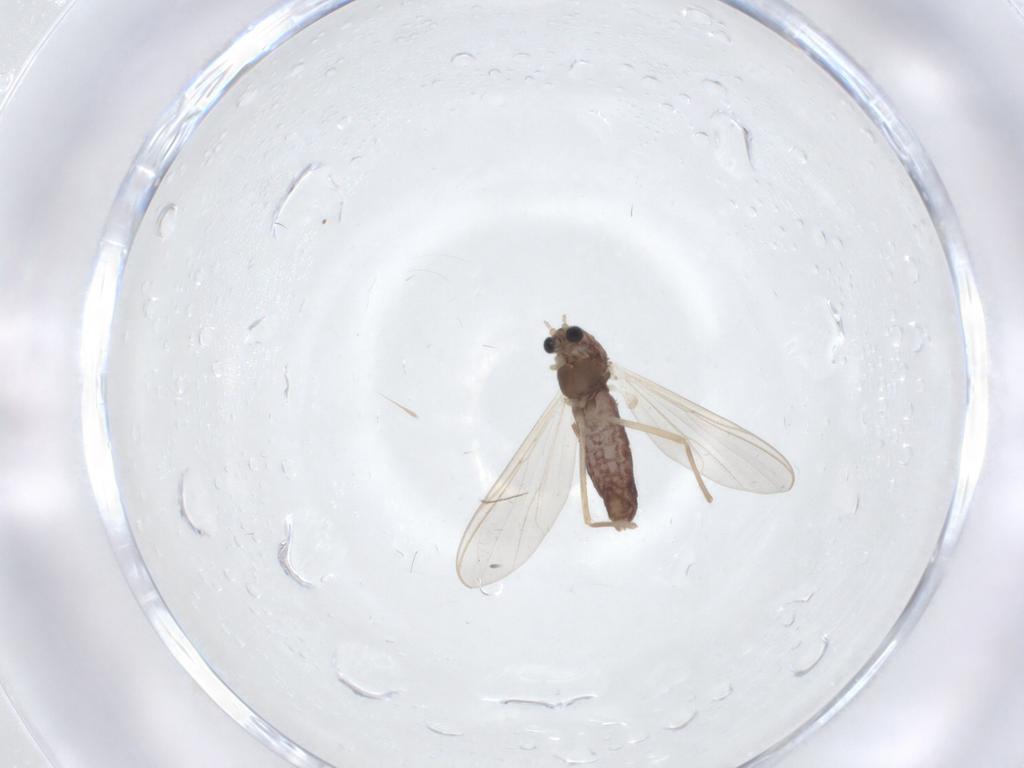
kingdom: Animalia
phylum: Arthropoda
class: Insecta
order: Diptera
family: Chironomidae
